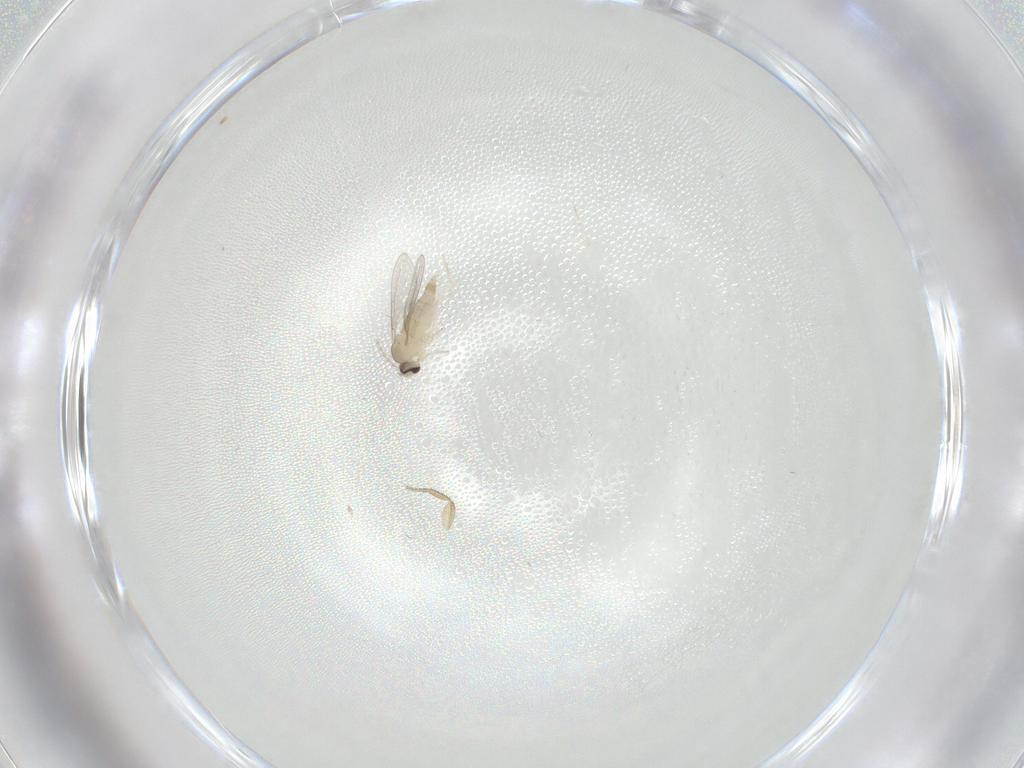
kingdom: Animalia
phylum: Arthropoda
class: Insecta
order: Diptera
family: Cecidomyiidae
